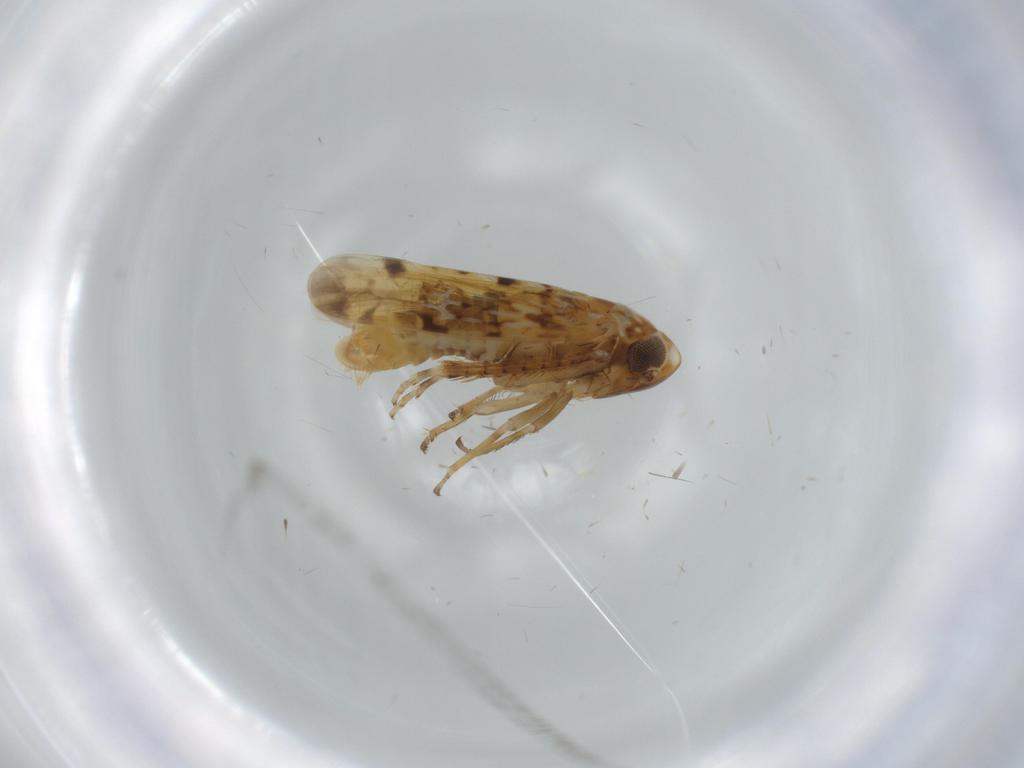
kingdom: Animalia
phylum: Arthropoda
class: Insecta
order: Hemiptera
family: Cicadellidae
